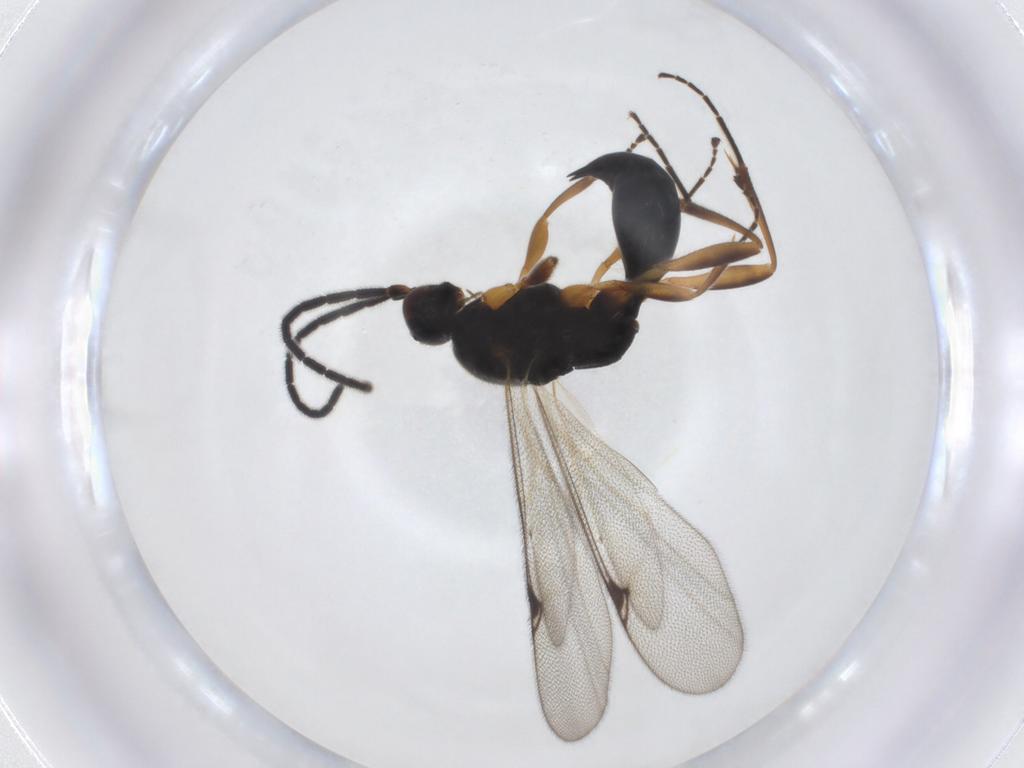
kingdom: Animalia
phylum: Arthropoda
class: Insecta
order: Hymenoptera
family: Proctotrupidae
